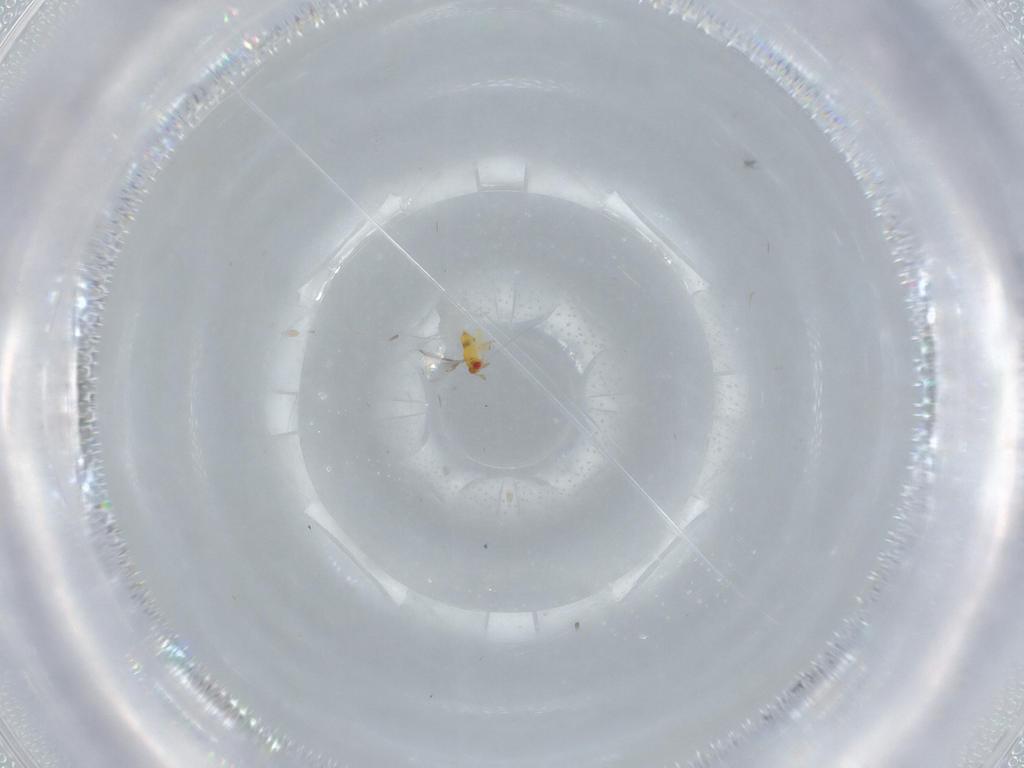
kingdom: Animalia
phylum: Arthropoda
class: Insecta
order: Hymenoptera
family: Trichogrammatidae
